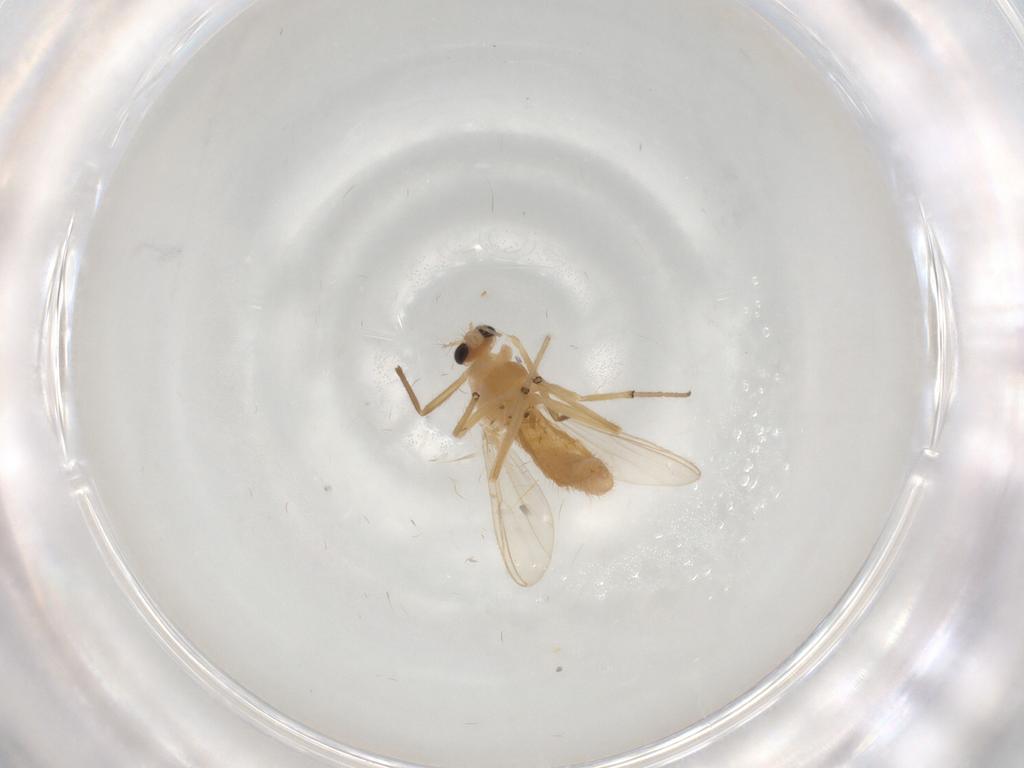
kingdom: Animalia
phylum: Arthropoda
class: Insecta
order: Diptera
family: Chironomidae
